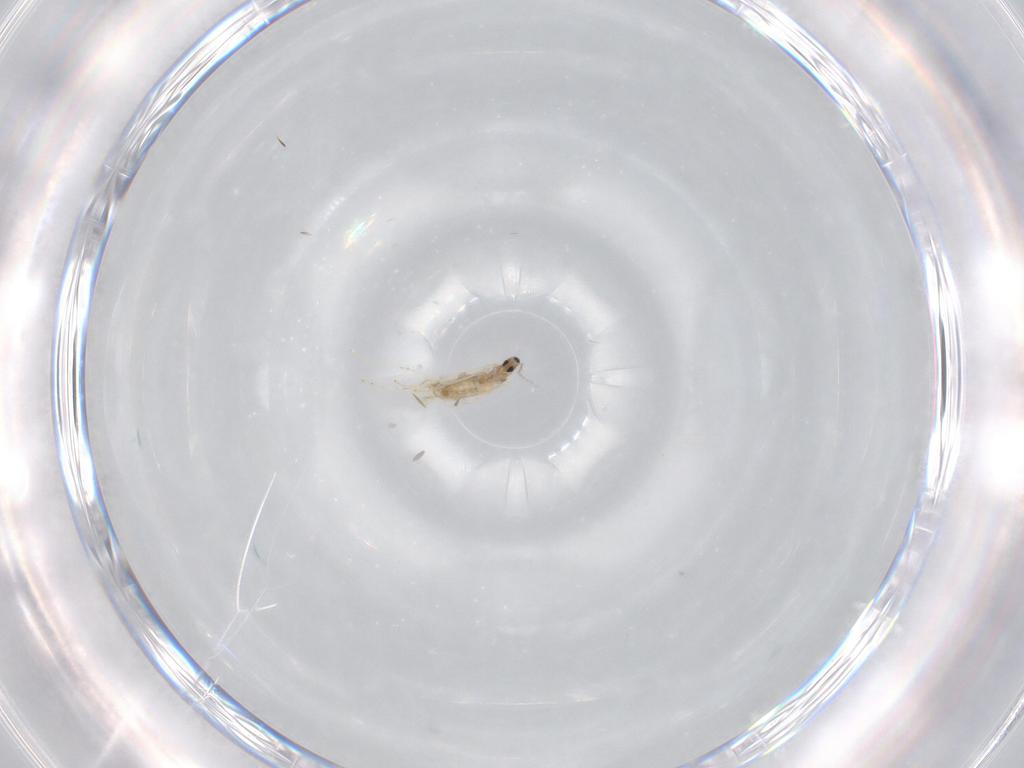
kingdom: Animalia
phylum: Arthropoda
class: Insecta
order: Diptera
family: Cecidomyiidae
